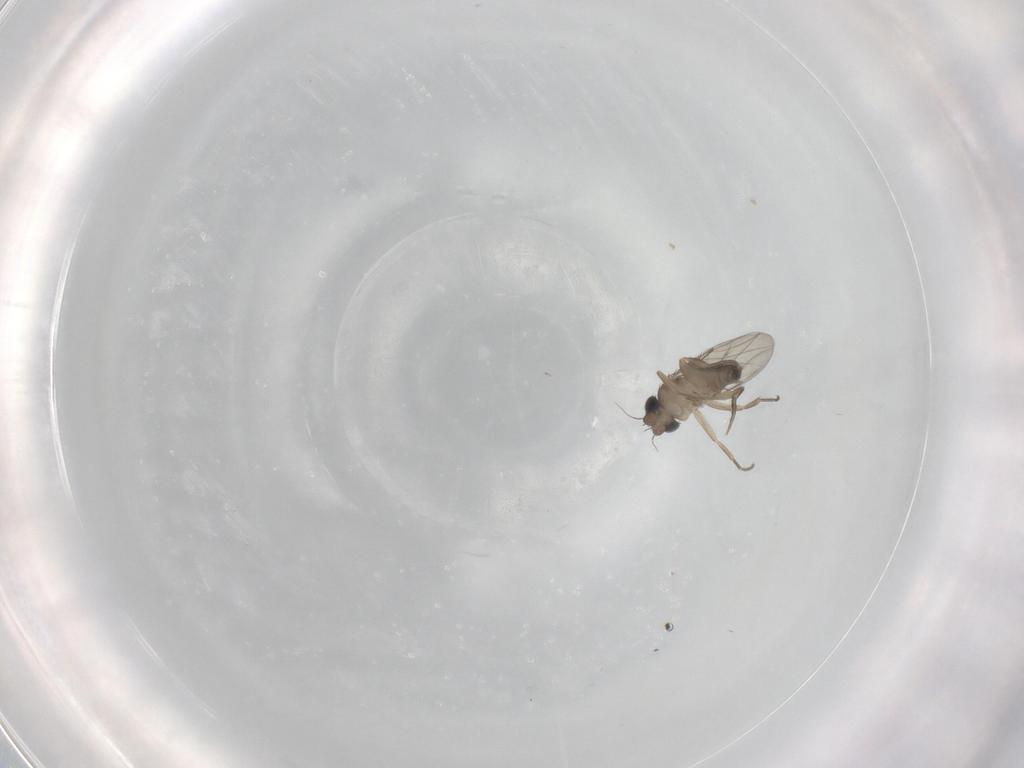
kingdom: Animalia
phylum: Arthropoda
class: Insecta
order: Diptera
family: Phoridae
